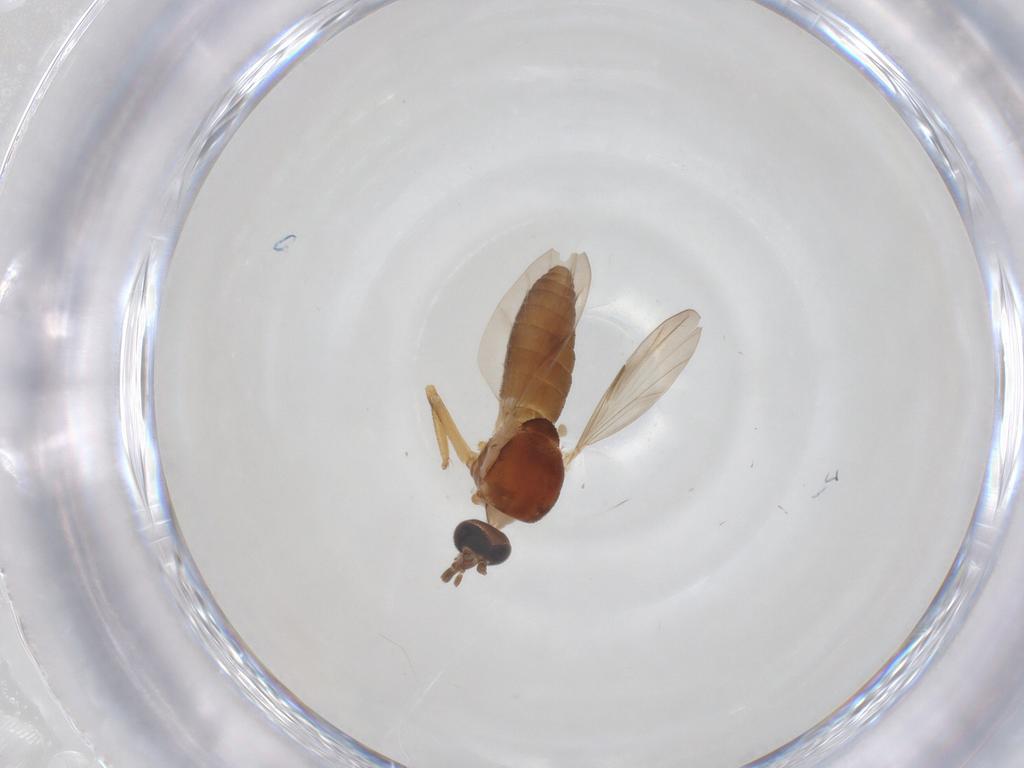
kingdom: Animalia
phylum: Arthropoda
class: Insecta
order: Diptera
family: Ceratopogonidae
